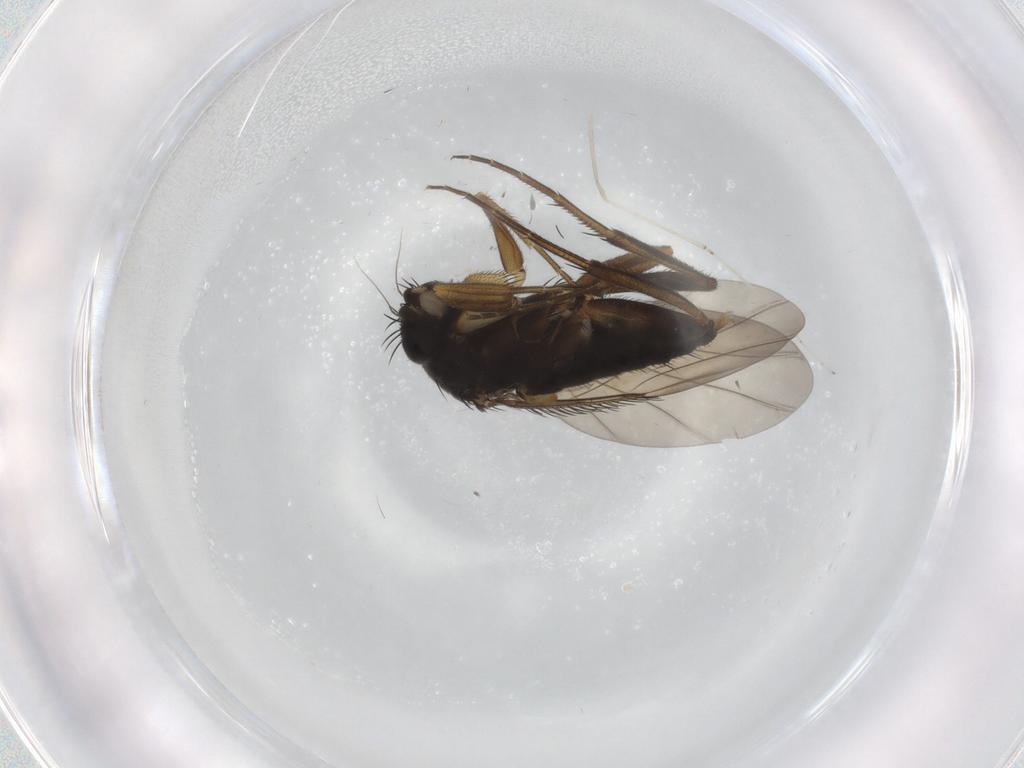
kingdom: Animalia
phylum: Arthropoda
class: Insecta
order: Diptera
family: Phoridae
